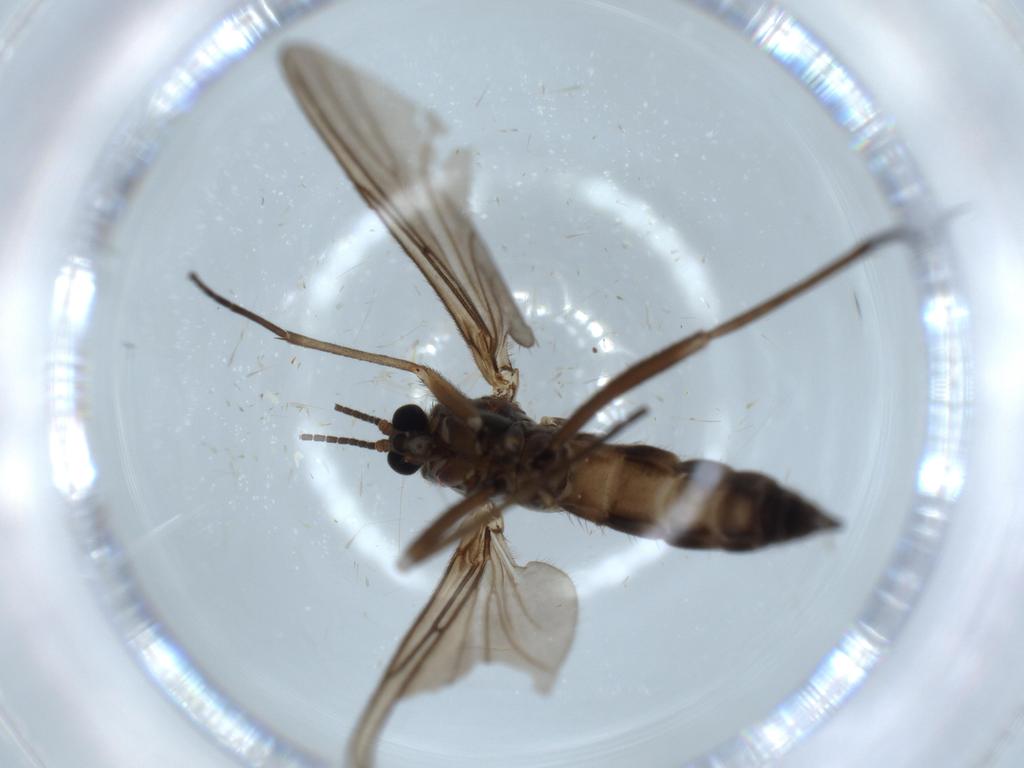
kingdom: Animalia
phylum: Arthropoda
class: Insecta
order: Diptera
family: Sciaridae
